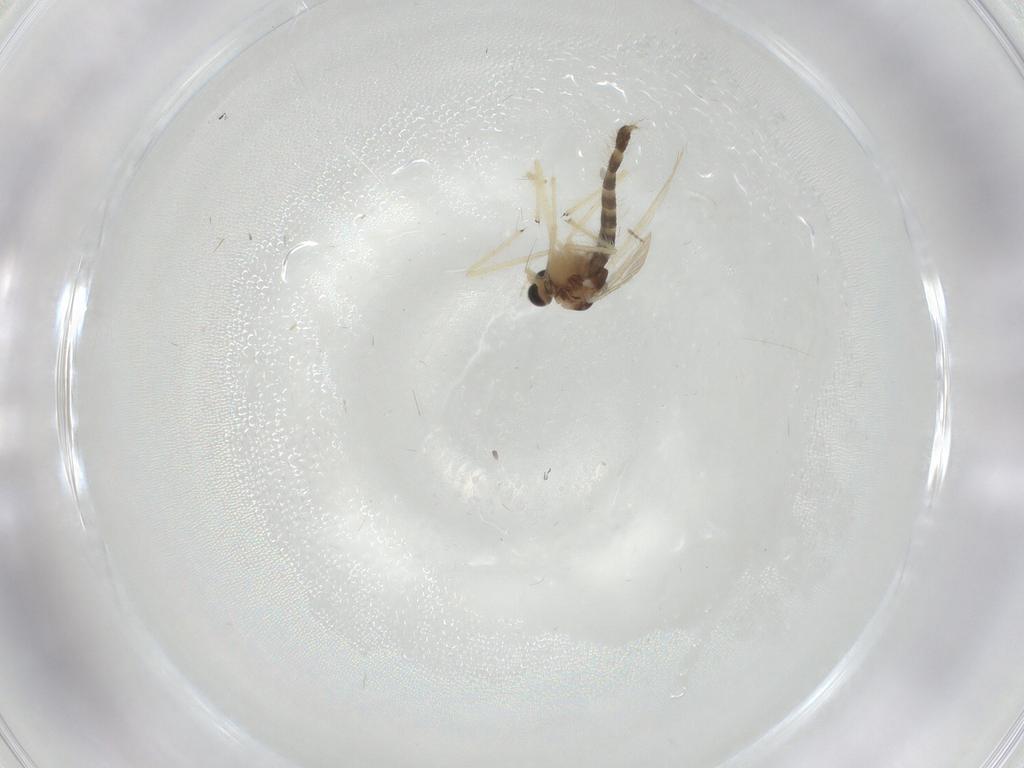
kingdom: Animalia
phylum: Arthropoda
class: Insecta
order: Diptera
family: Chironomidae
